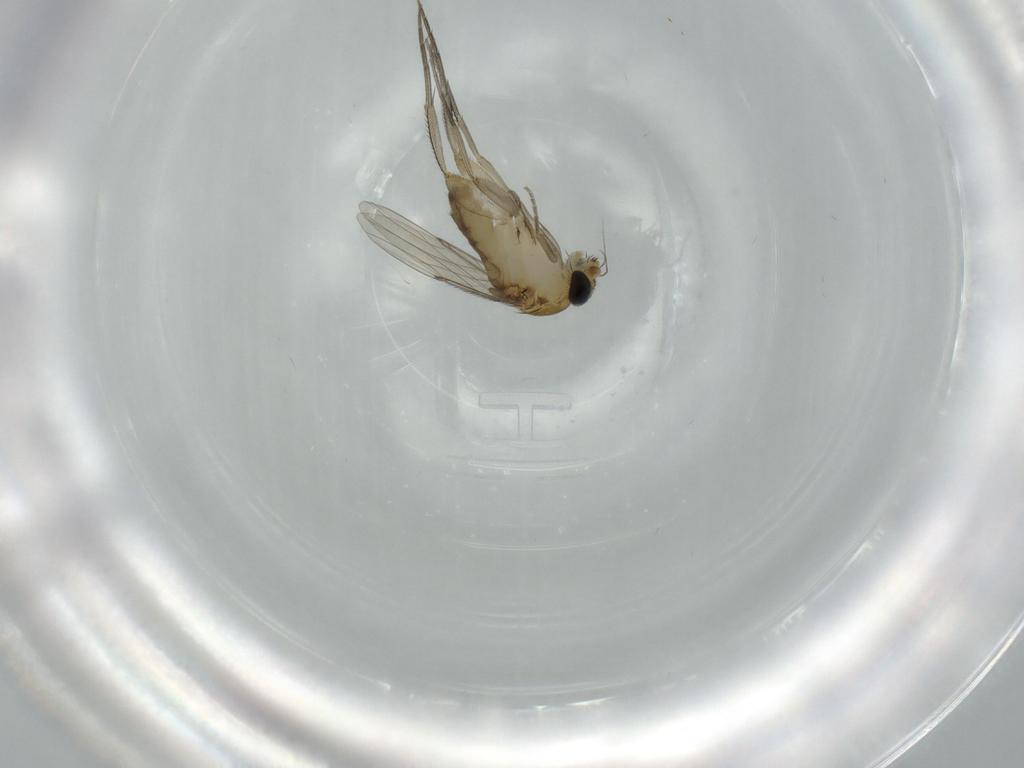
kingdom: Animalia
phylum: Arthropoda
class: Insecta
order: Diptera
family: Phoridae
